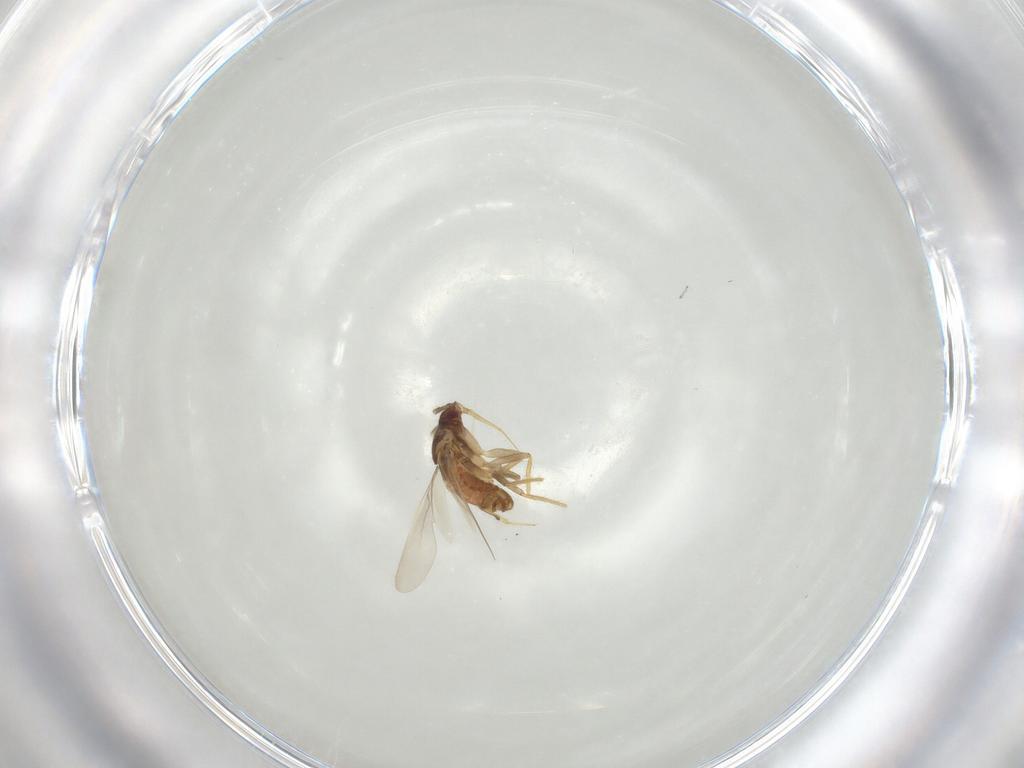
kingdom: Animalia
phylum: Arthropoda
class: Insecta
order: Hemiptera
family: Ceratocombidae
